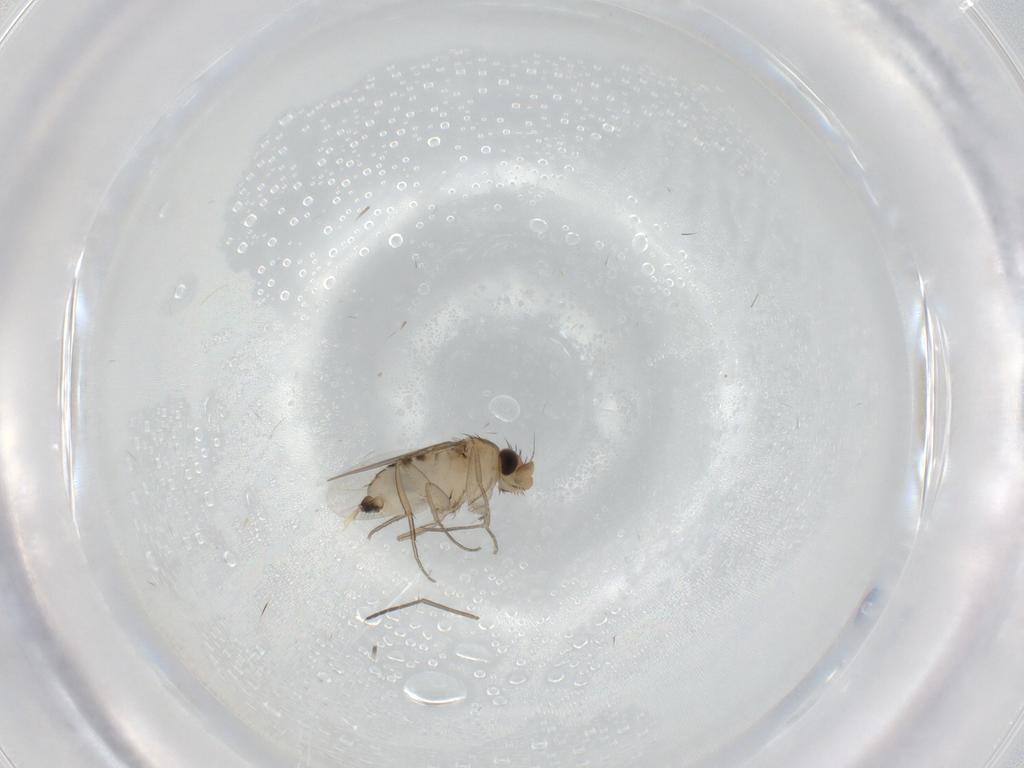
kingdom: Animalia
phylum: Arthropoda
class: Insecta
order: Diptera
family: Phoridae
